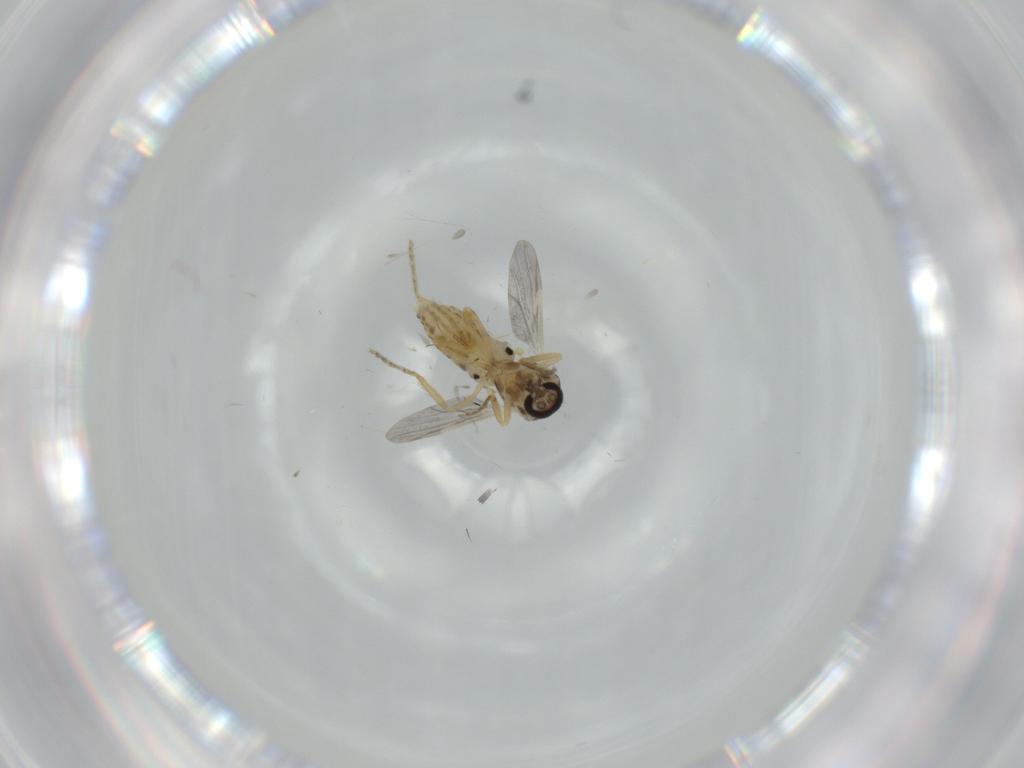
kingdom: Animalia
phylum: Arthropoda
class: Insecta
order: Diptera
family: Ceratopogonidae
